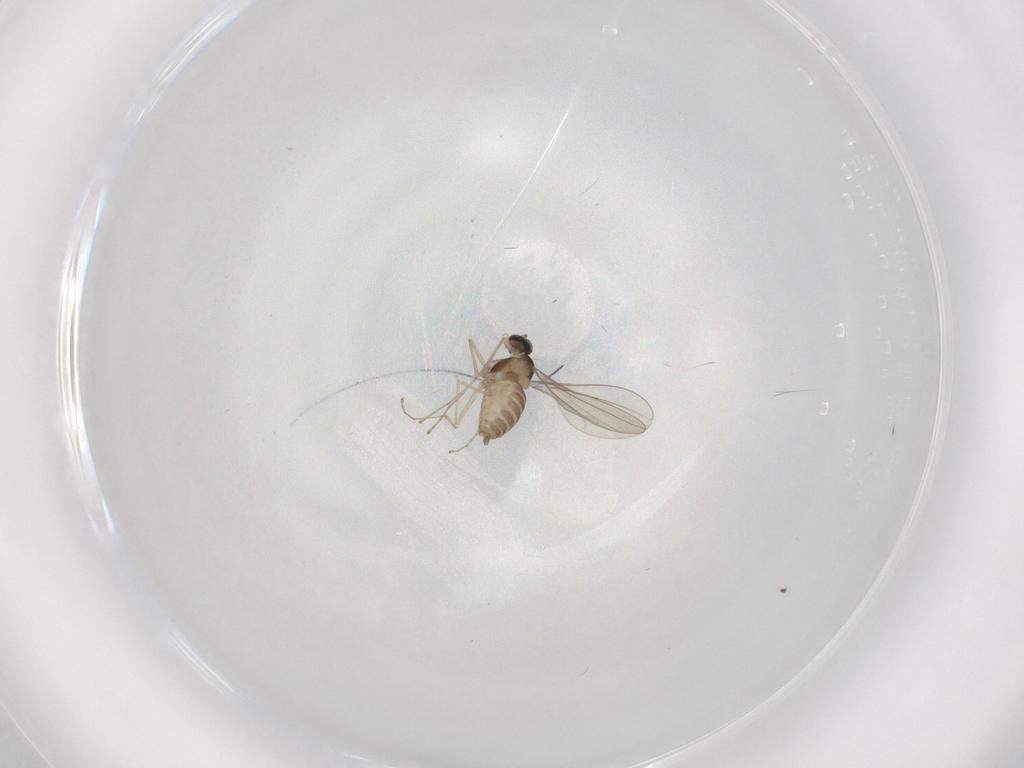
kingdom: Animalia
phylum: Arthropoda
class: Insecta
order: Diptera
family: Cecidomyiidae
